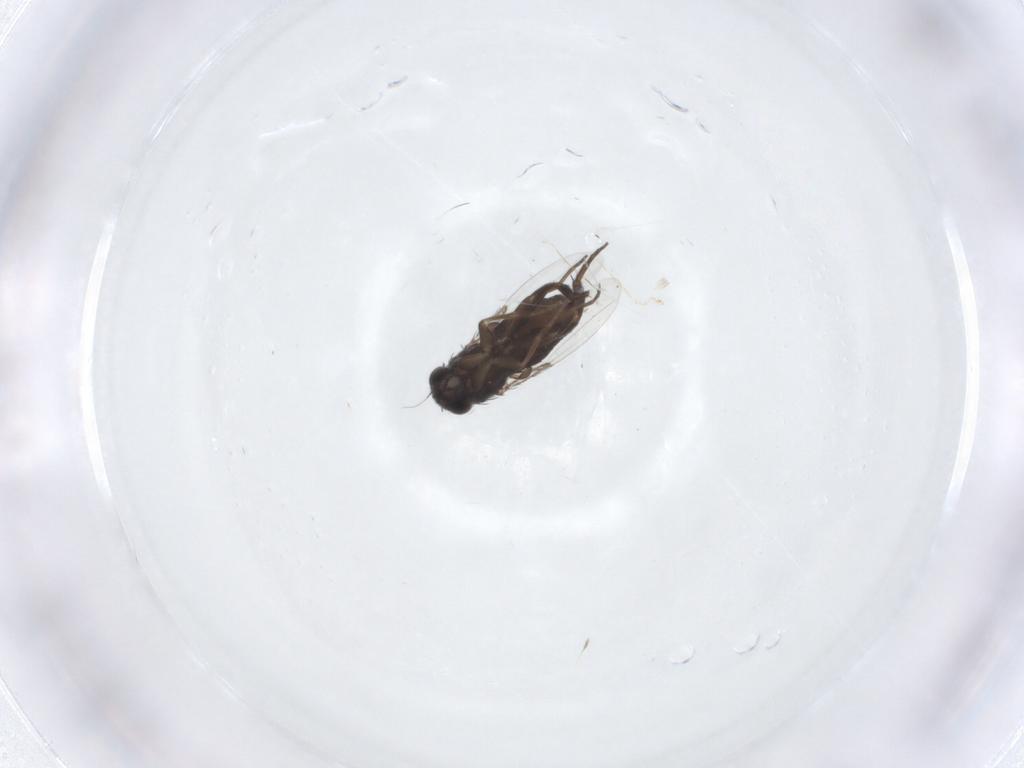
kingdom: Animalia
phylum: Arthropoda
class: Insecta
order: Diptera
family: Phoridae
